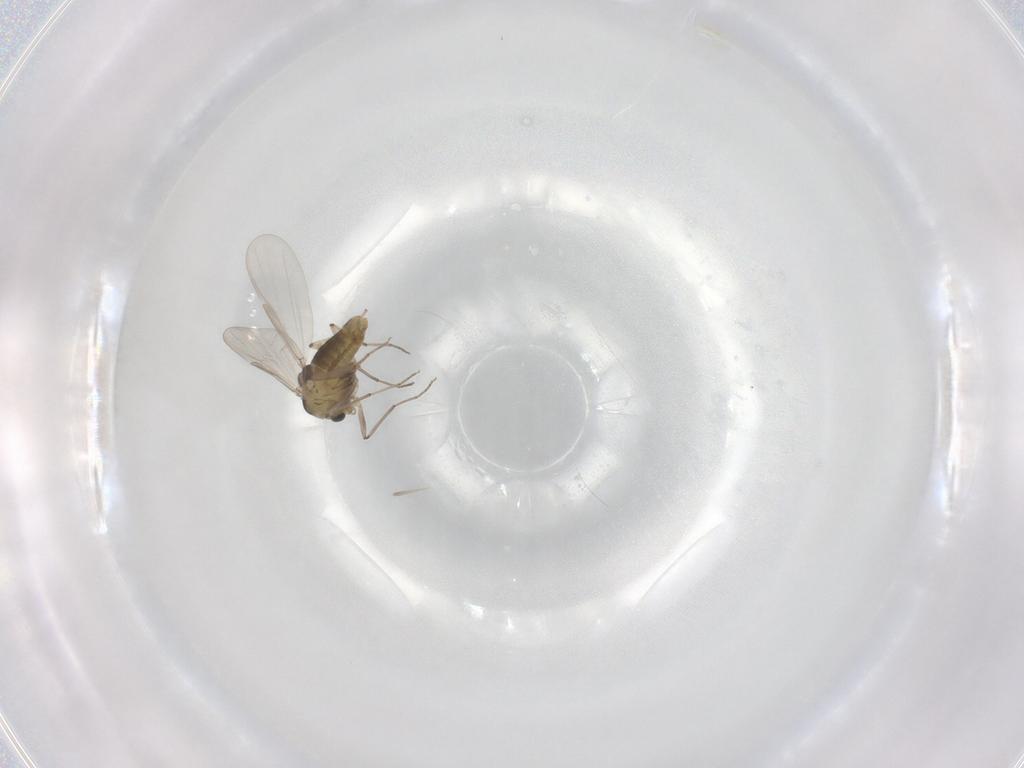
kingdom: Animalia
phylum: Arthropoda
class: Insecta
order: Diptera
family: Chironomidae
